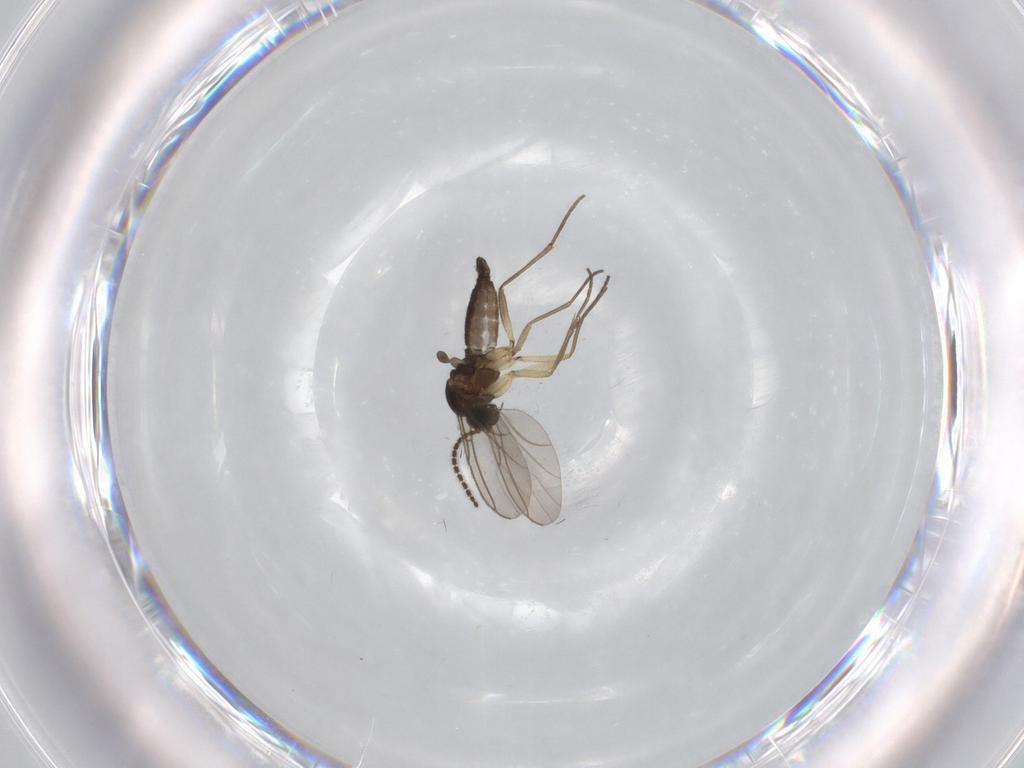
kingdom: Animalia
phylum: Arthropoda
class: Insecta
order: Diptera
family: Sciaridae
